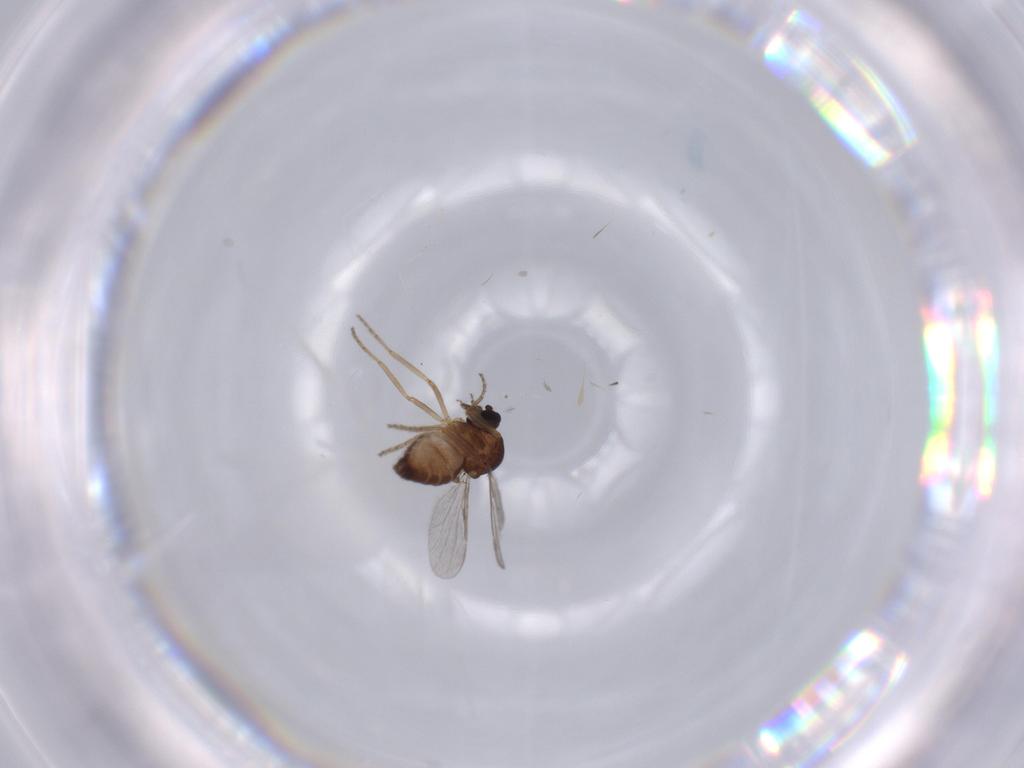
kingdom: Animalia
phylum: Arthropoda
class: Insecta
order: Diptera
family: Ceratopogonidae
